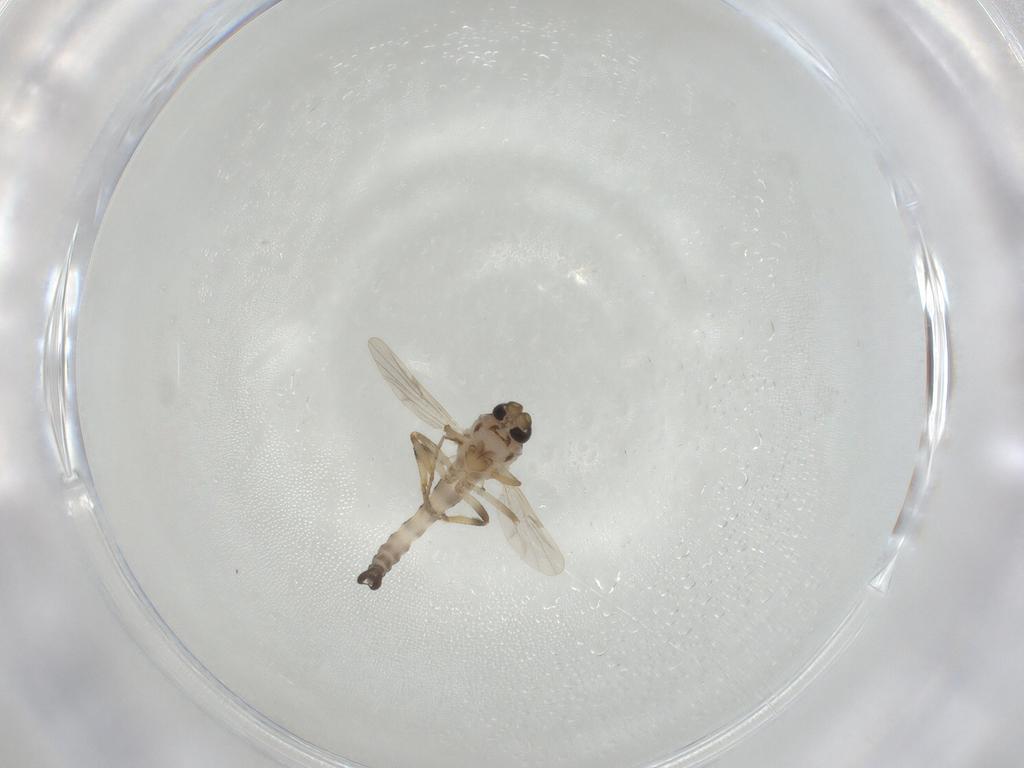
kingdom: Animalia
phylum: Arthropoda
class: Insecta
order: Diptera
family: Ceratopogonidae
